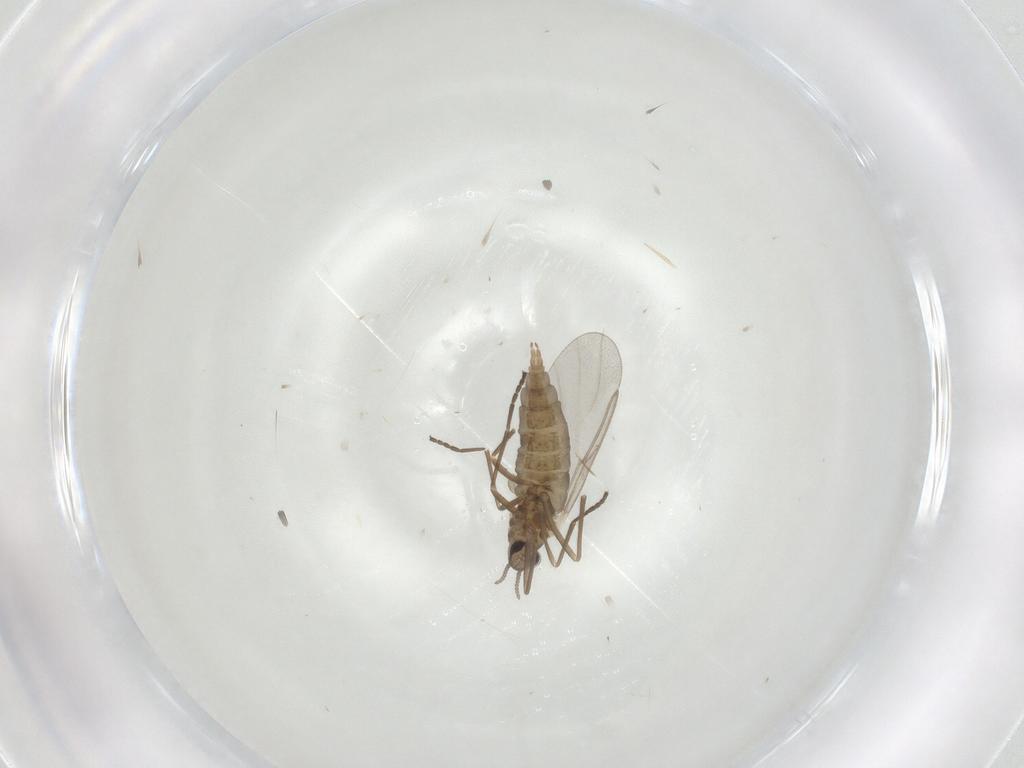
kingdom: Animalia
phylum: Arthropoda
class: Insecta
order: Diptera
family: Cecidomyiidae
